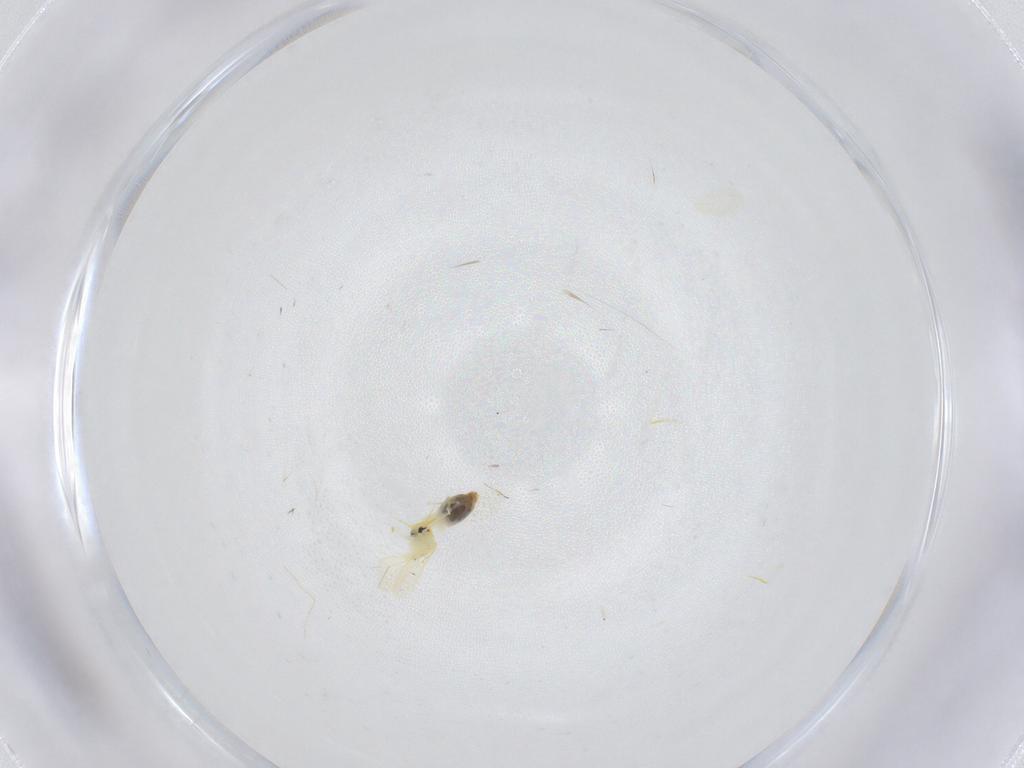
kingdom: Animalia
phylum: Arthropoda
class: Insecta
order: Hemiptera
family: Aleyrodidae
